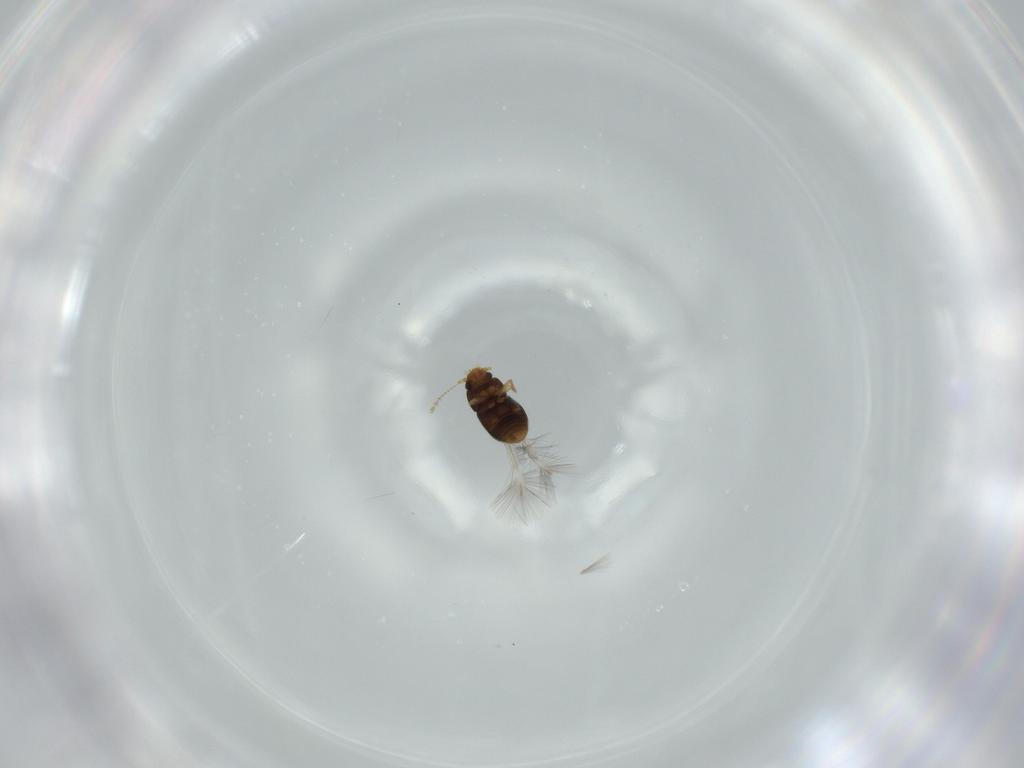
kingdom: Animalia
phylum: Arthropoda
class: Insecta
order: Coleoptera
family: Ptiliidae
